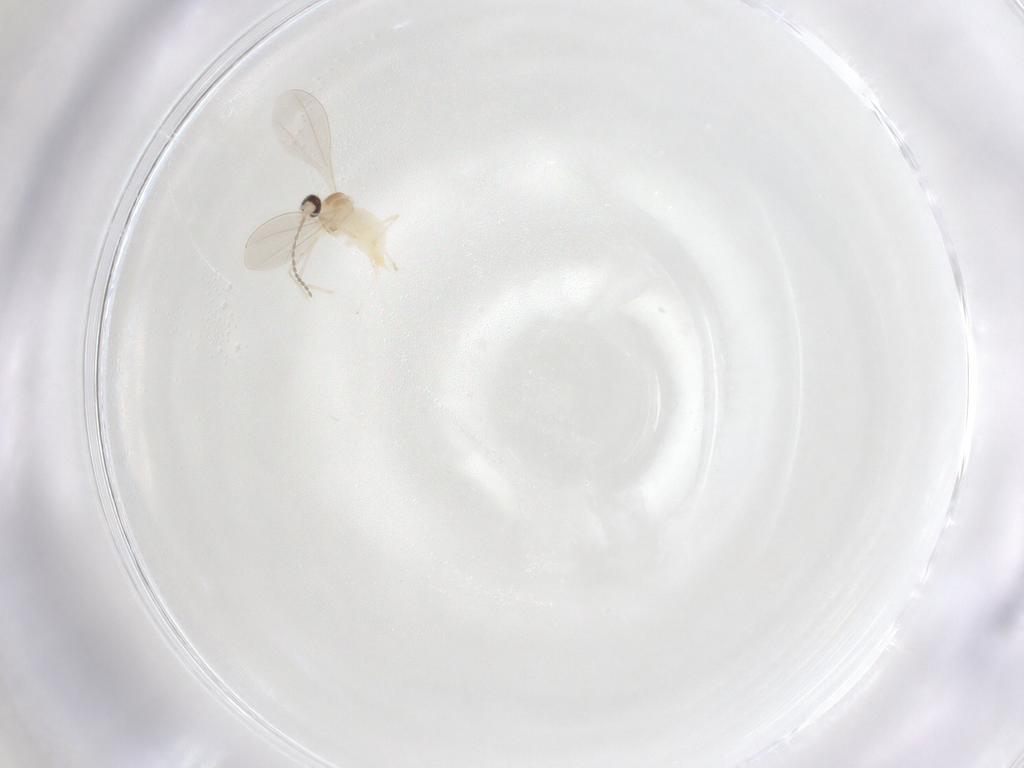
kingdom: Animalia
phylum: Arthropoda
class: Insecta
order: Diptera
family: Cecidomyiidae
